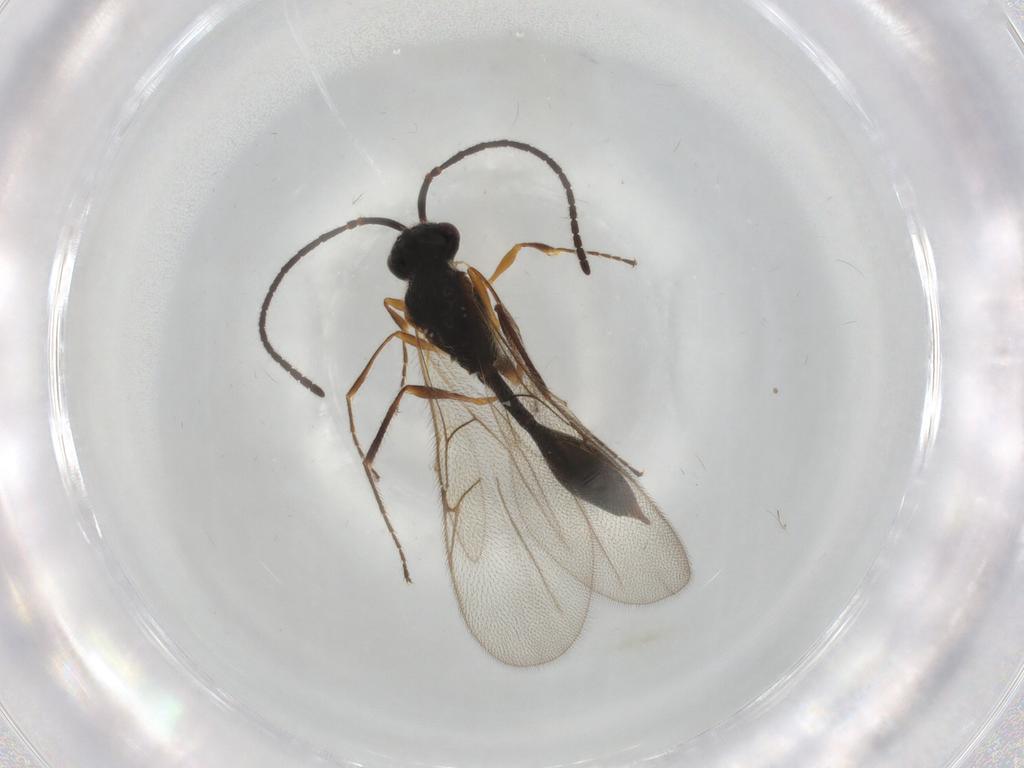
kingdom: Animalia
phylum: Arthropoda
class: Insecta
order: Hymenoptera
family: Diapriidae
